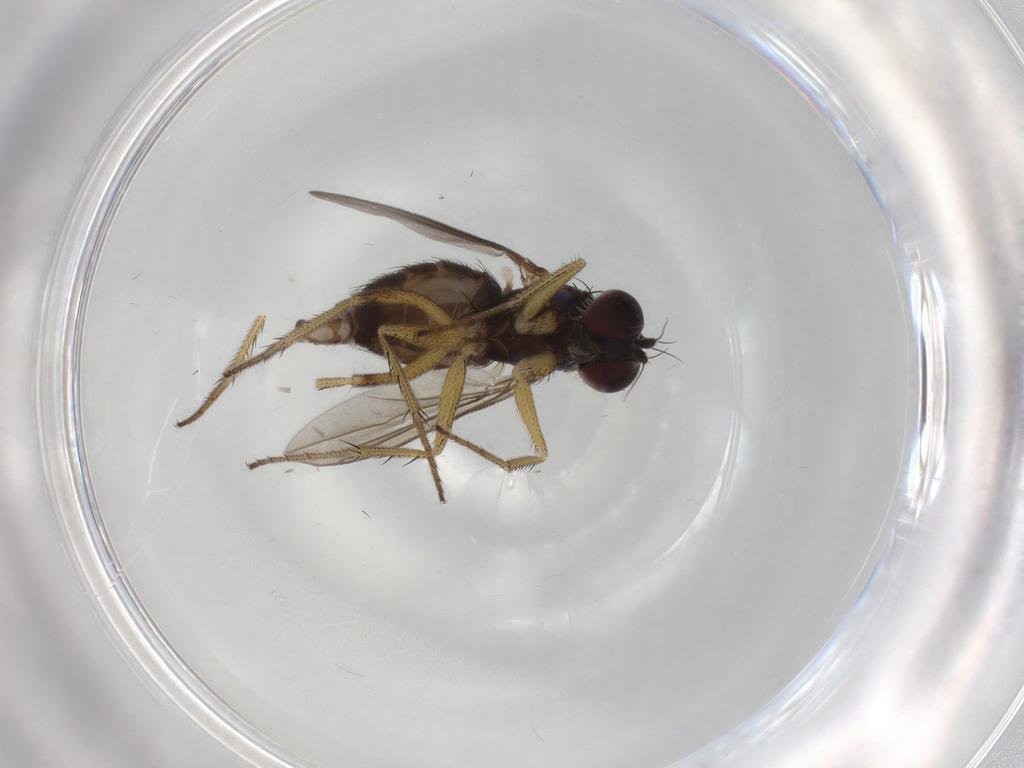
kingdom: Animalia
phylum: Arthropoda
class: Insecta
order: Diptera
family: Dolichopodidae
